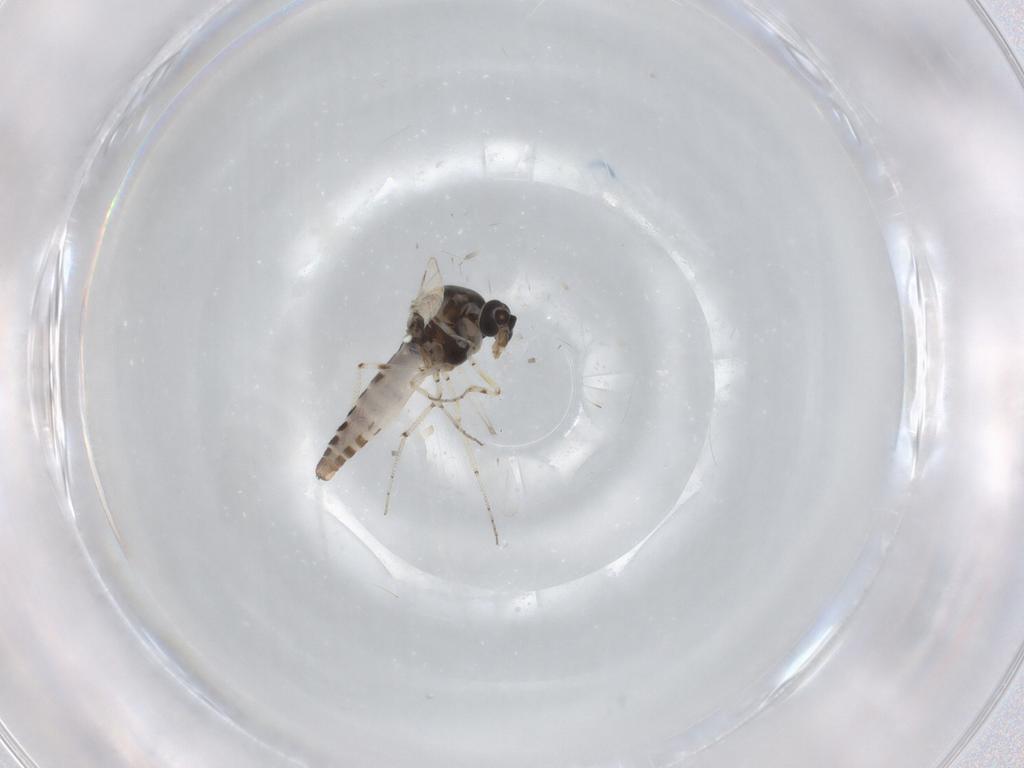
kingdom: Animalia
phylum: Arthropoda
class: Insecta
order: Diptera
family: Ceratopogonidae
